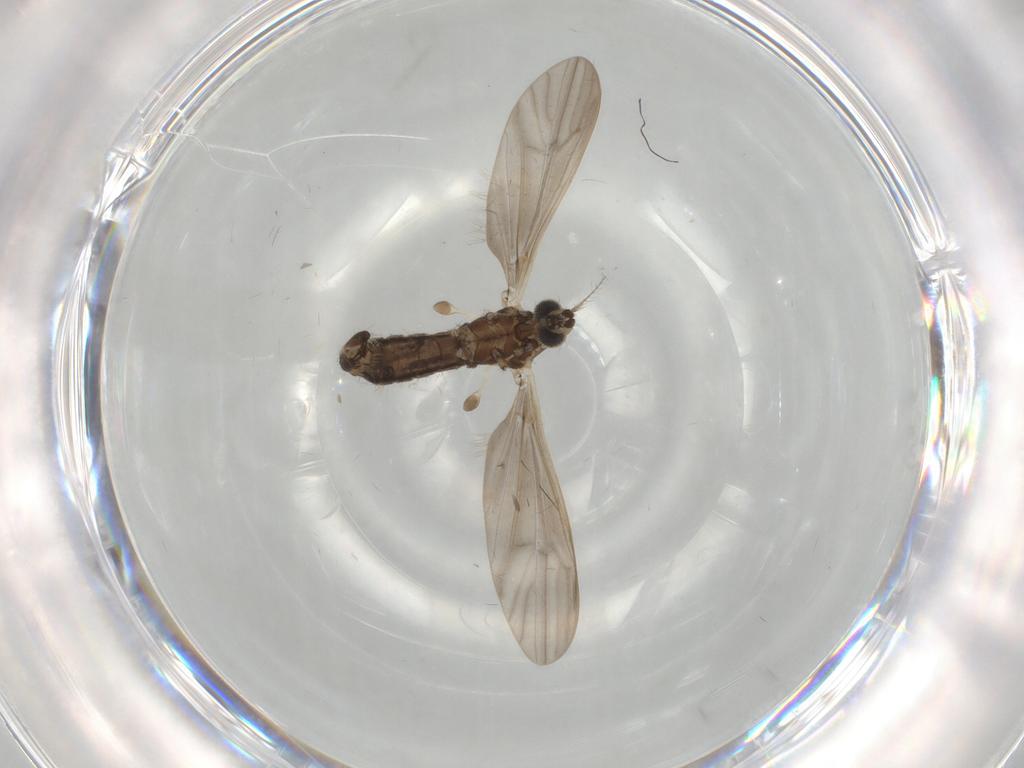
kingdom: Animalia
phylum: Arthropoda
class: Insecta
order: Diptera
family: Limoniidae
